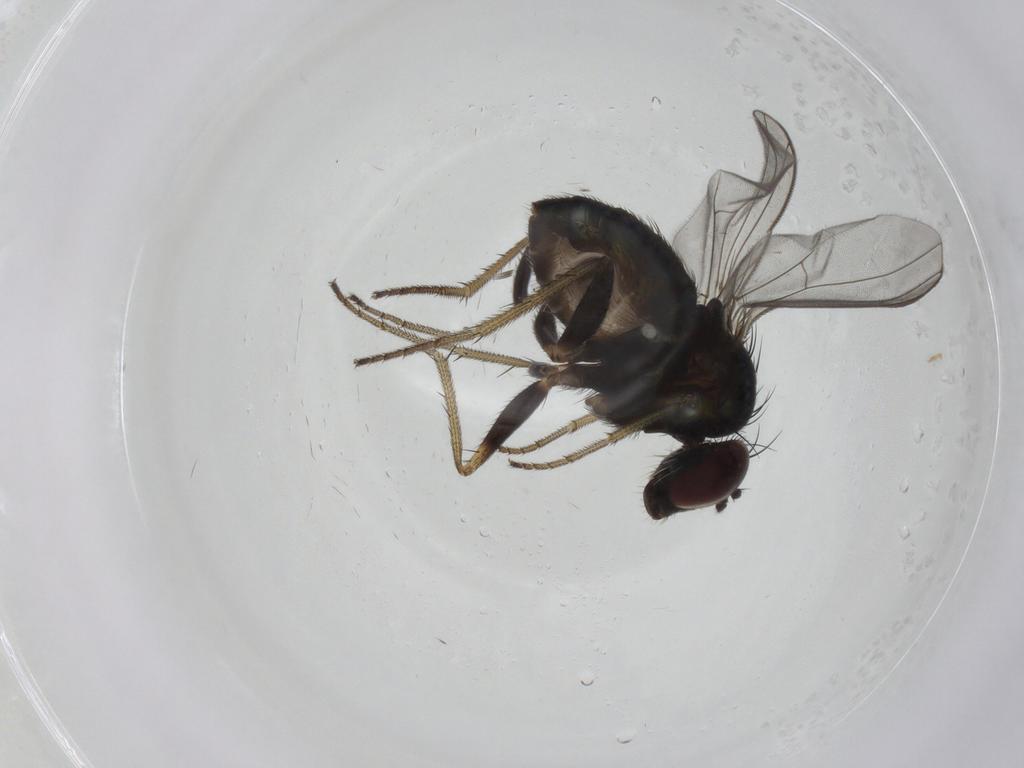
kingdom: Animalia
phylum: Arthropoda
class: Insecta
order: Diptera
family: Dolichopodidae
